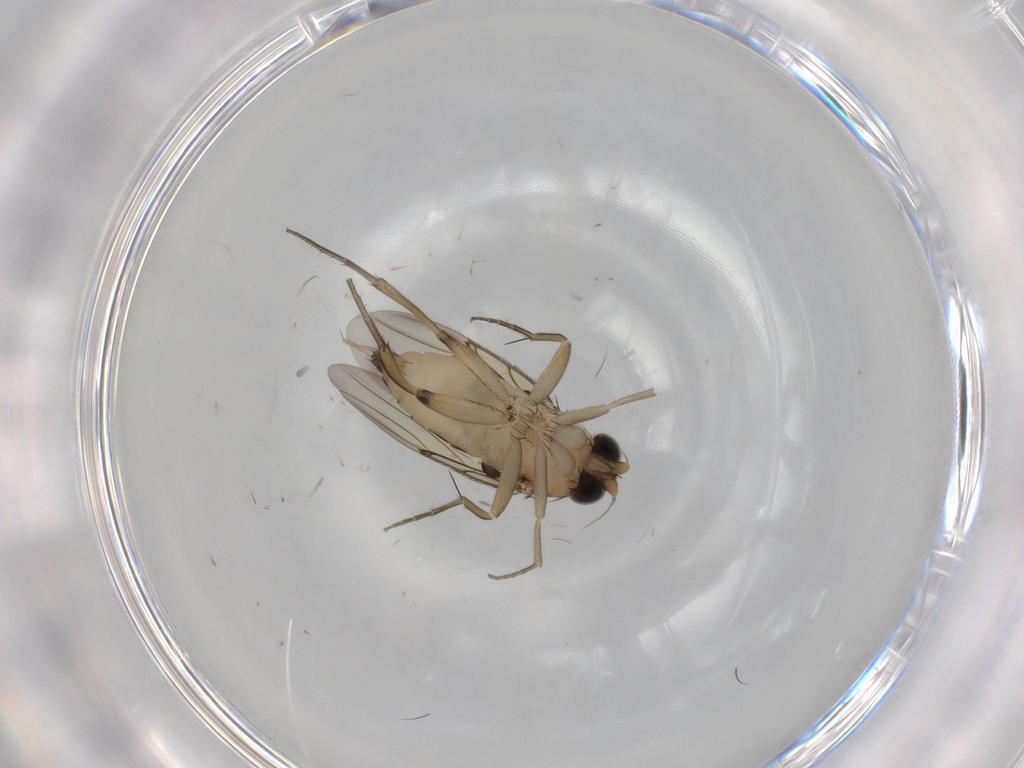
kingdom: Animalia
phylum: Arthropoda
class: Insecta
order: Diptera
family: Phoridae
